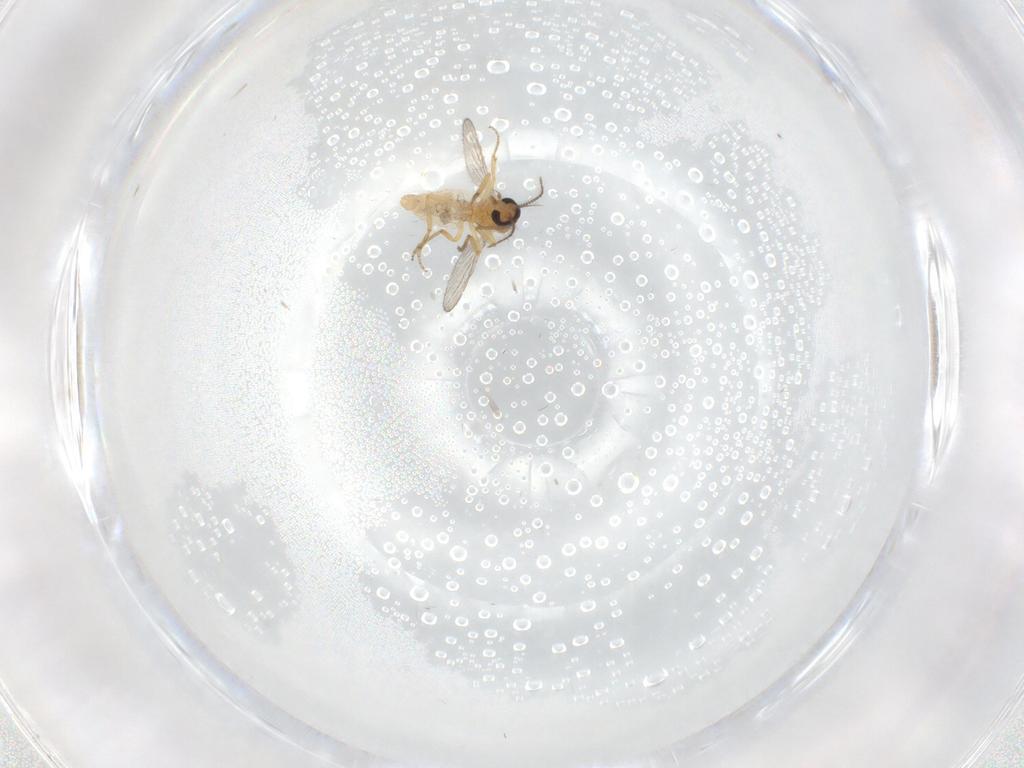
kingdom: Animalia
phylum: Arthropoda
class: Insecta
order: Diptera
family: Ceratopogonidae
